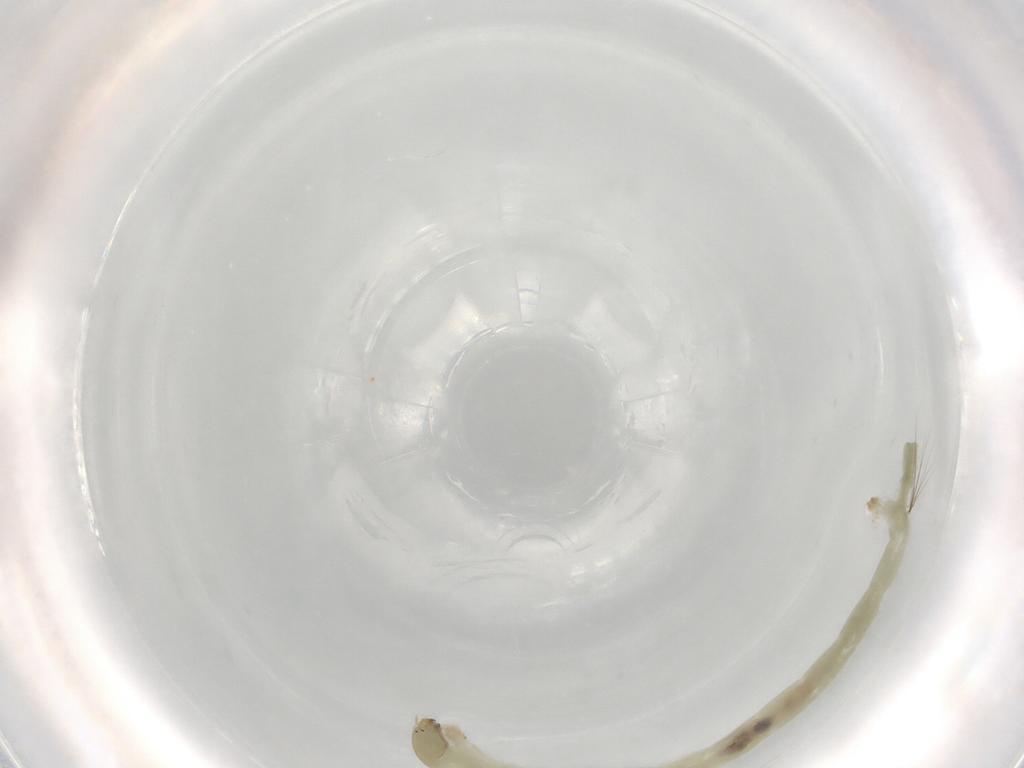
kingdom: Animalia
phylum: Arthropoda
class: Insecta
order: Diptera
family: Chironomidae
